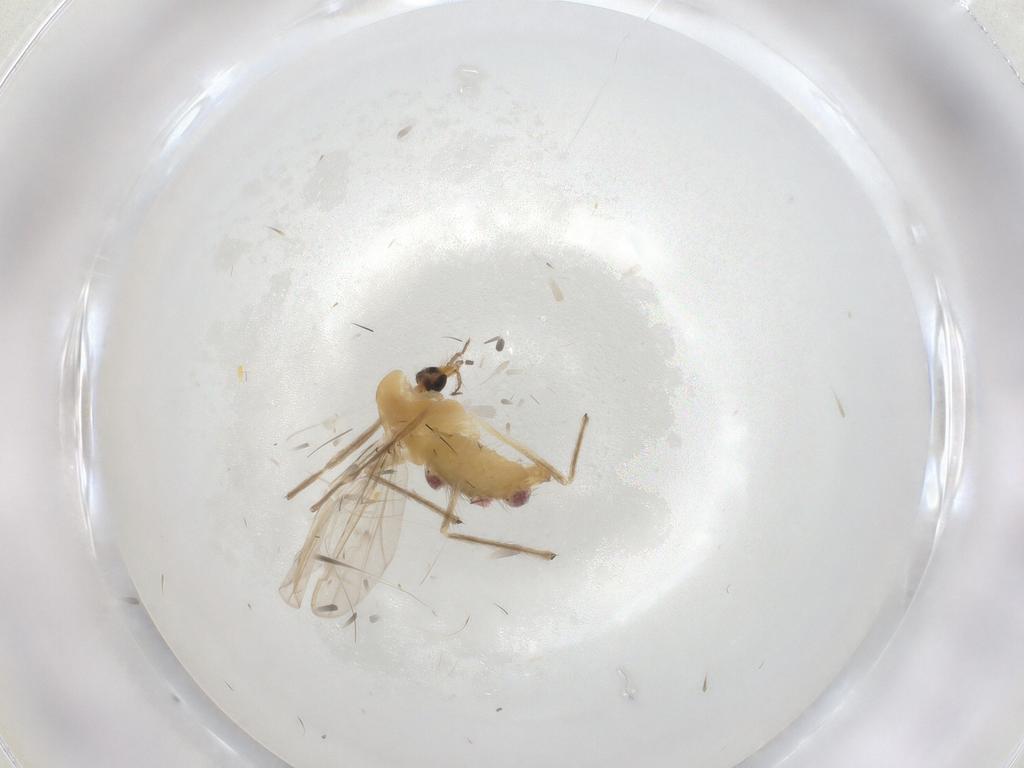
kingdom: Animalia
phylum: Arthropoda
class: Insecta
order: Diptera
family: Chironomidae
